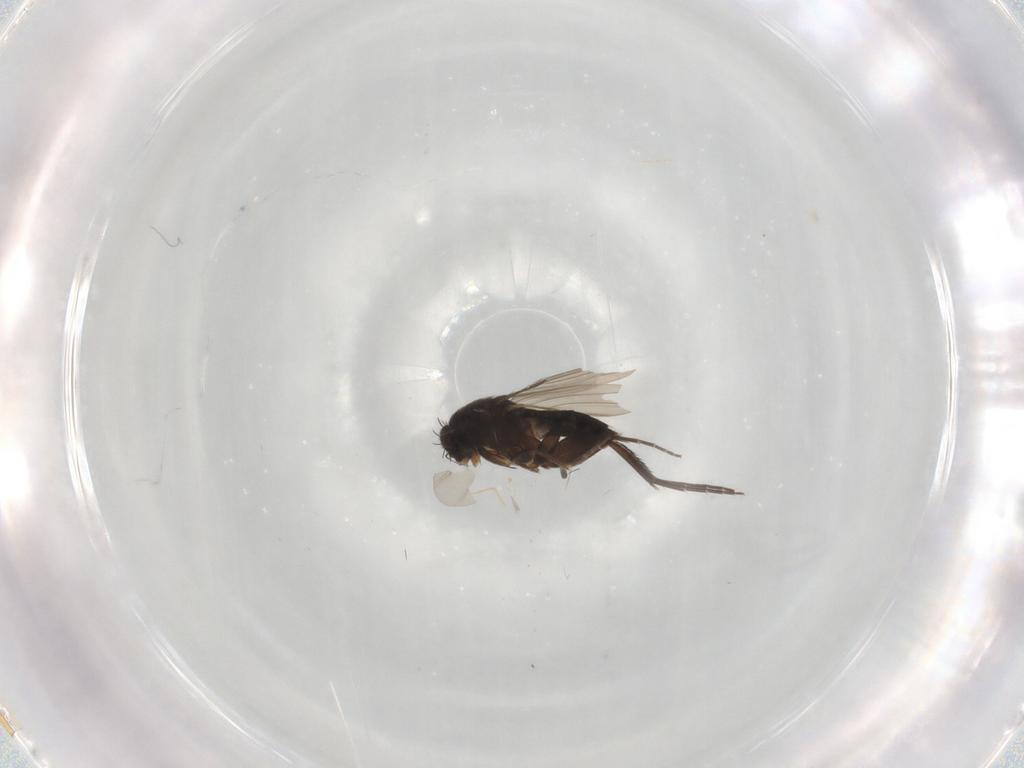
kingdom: Animalia
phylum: Arthropoda
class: Insecta
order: Diptera
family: Phoridae
